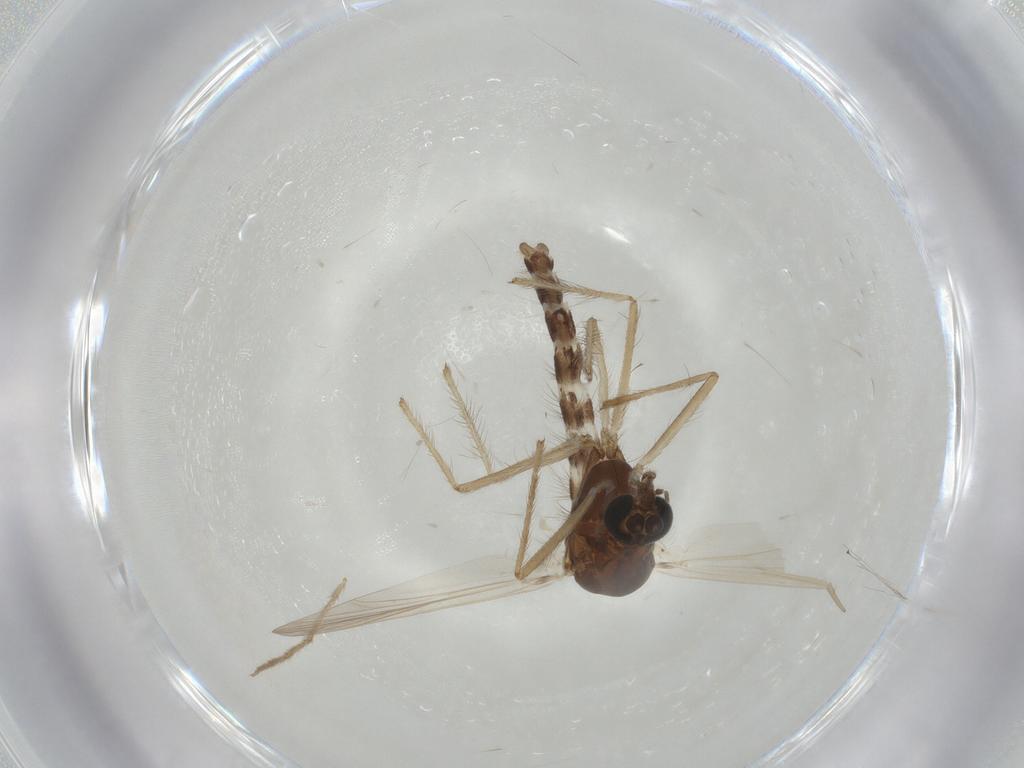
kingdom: Animalia
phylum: Arthropoda
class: Insecta
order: Diptera
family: Chironomidae
